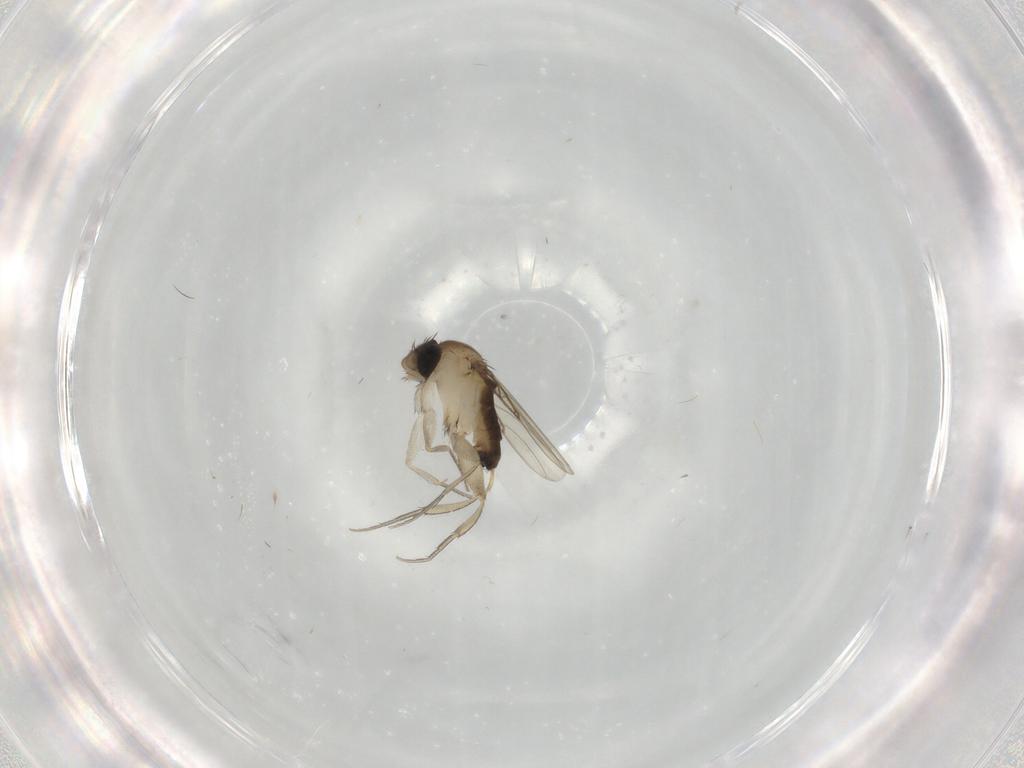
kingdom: Animalia
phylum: Arthropoda
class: Insecta
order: Diptera
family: Phoridae
